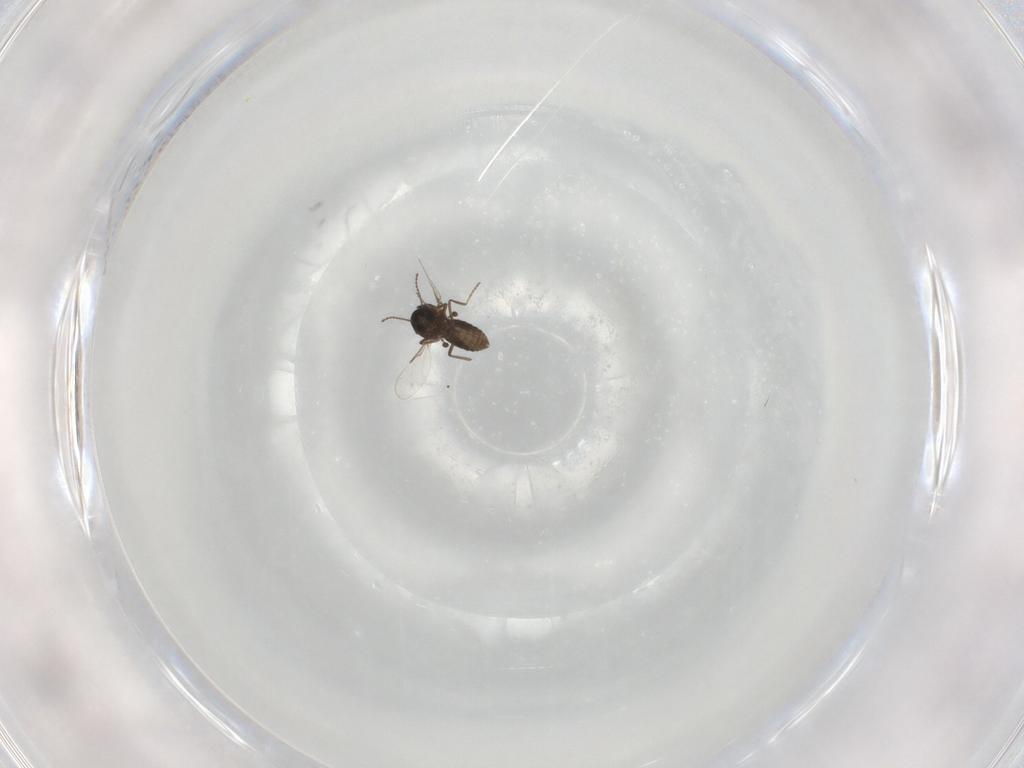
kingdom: Animalia
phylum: Arthropoda
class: Insecta
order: Diptera
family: Ceratopogonidae
